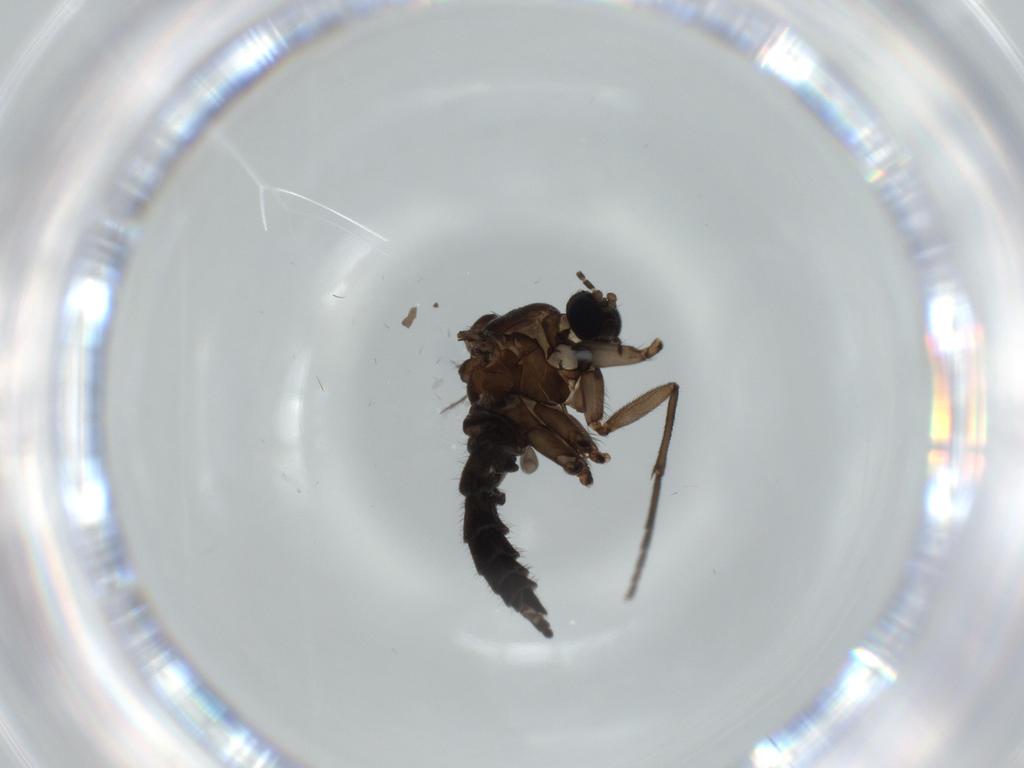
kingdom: Animalia
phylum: Arthropoda
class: Insecta
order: Diptera
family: Sciaridae
